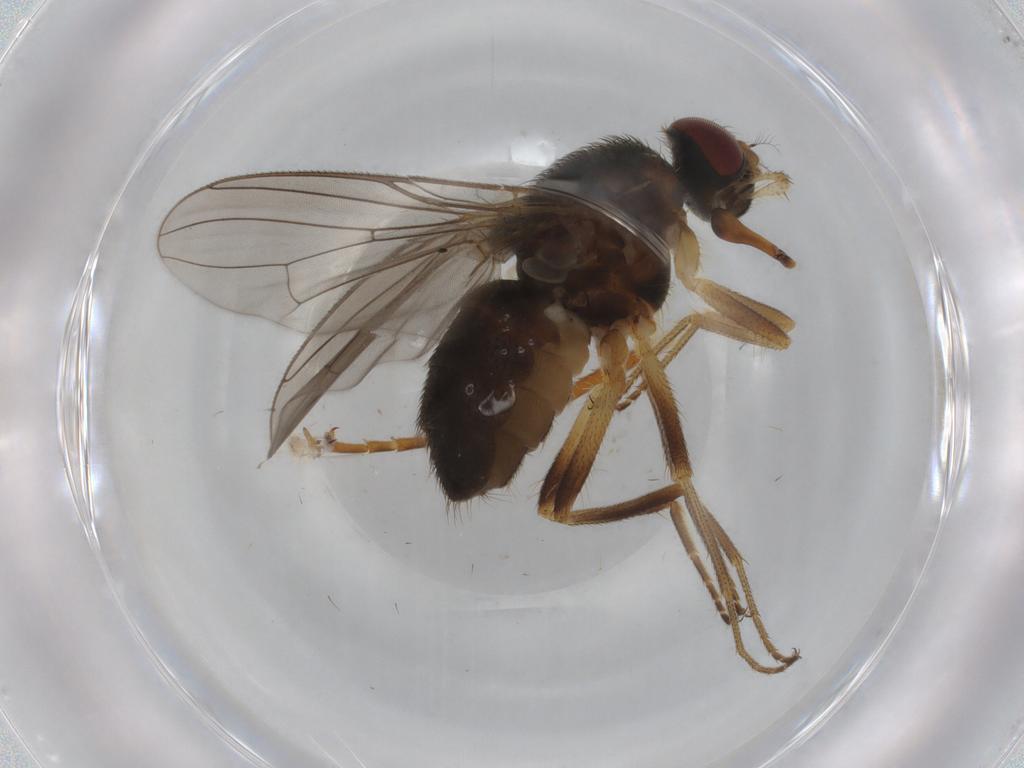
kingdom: Animalia
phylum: Arthropoda
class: Insecta
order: Diptera
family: Muscidae
